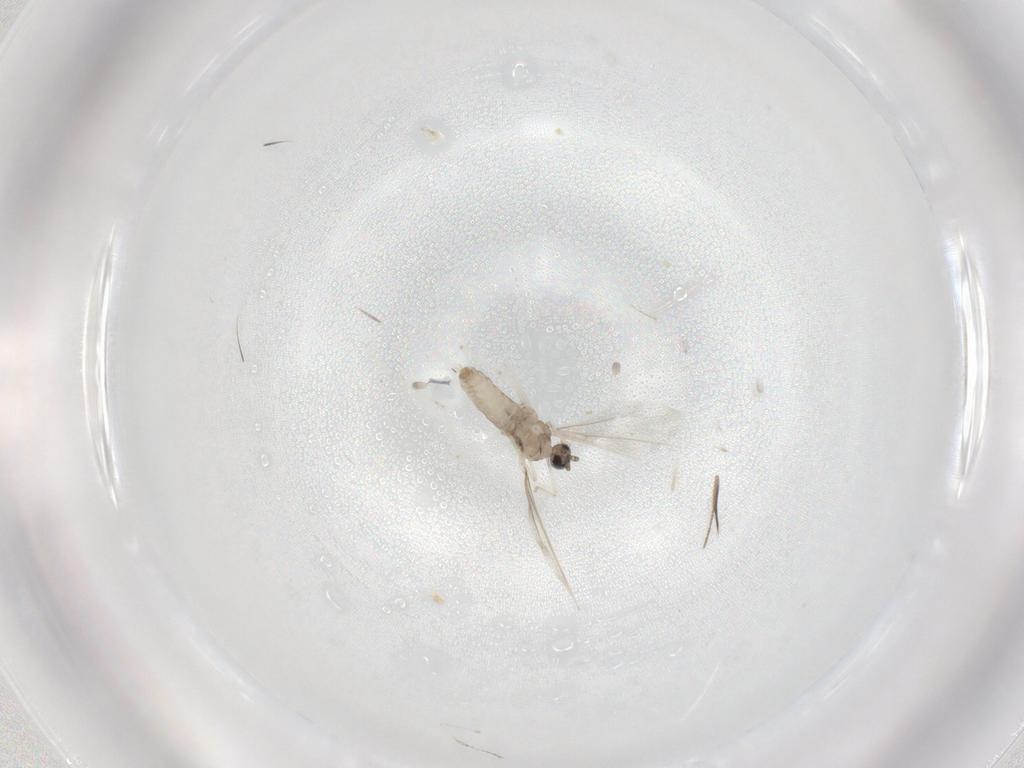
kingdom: Animalia
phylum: Arthropoda
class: Insecta
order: Diptera
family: Cecidomyiidae
